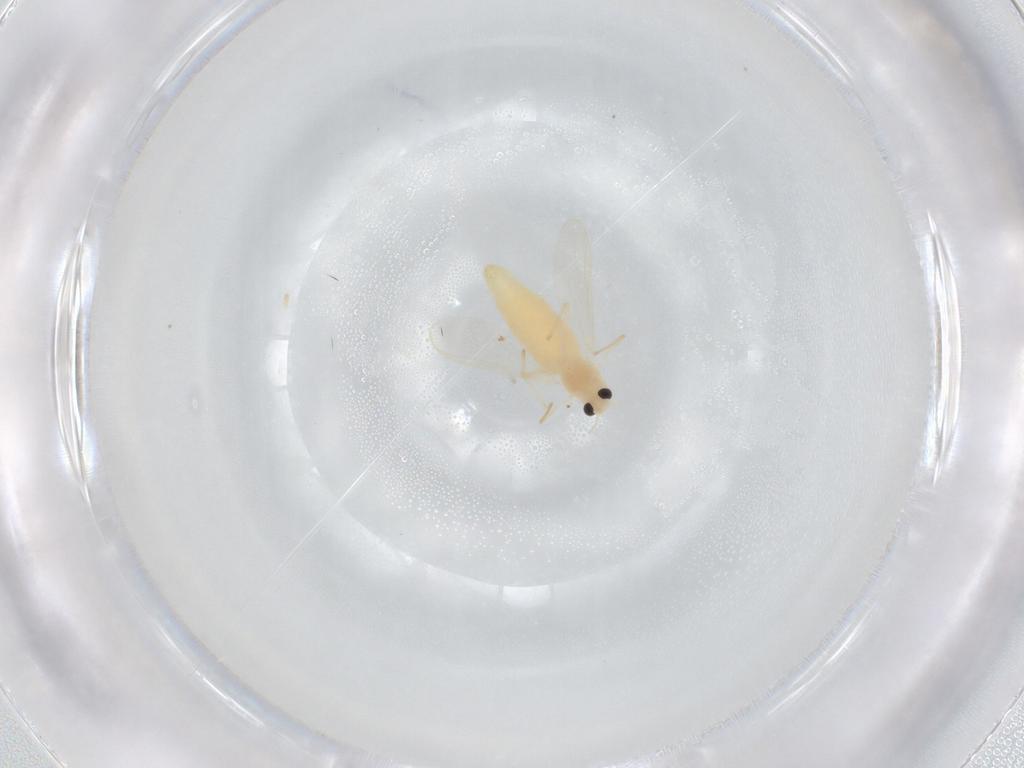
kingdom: Animalia
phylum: Arthropoda
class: Insecta
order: Diptera
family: Chironomidae
